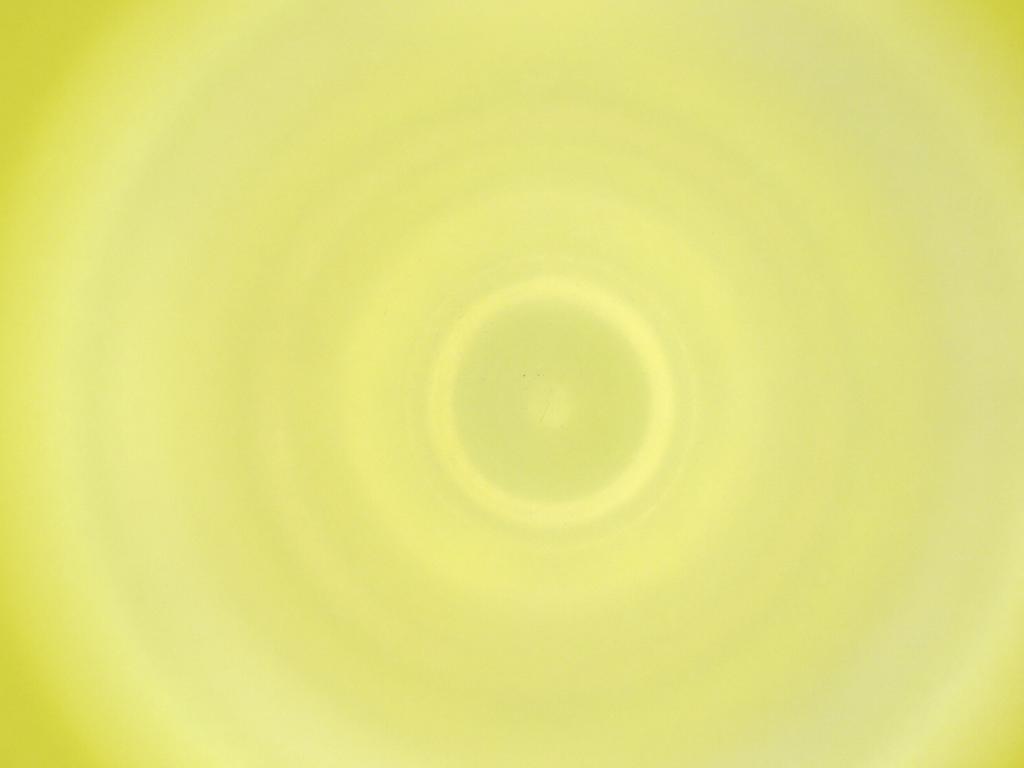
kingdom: Animalia
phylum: Arthropoda
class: Insecta
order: Diptera
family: Cecidomyiidae
